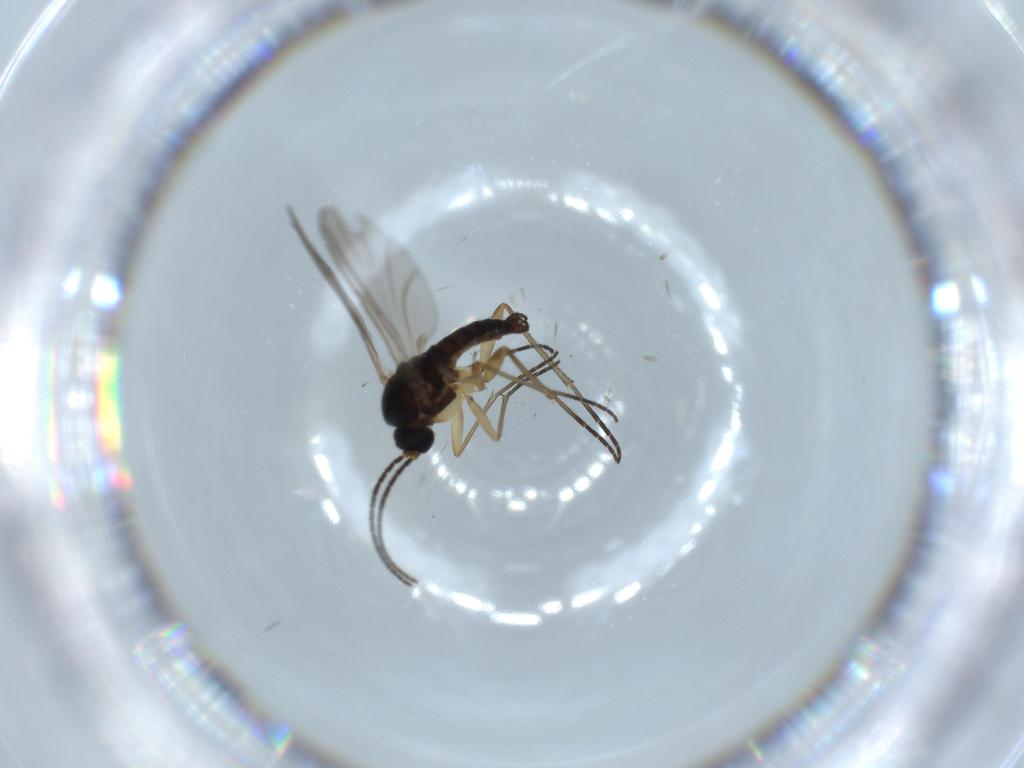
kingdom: Animalia
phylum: Arthropoda
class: Insecta
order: Diptera
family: Sciaridae
